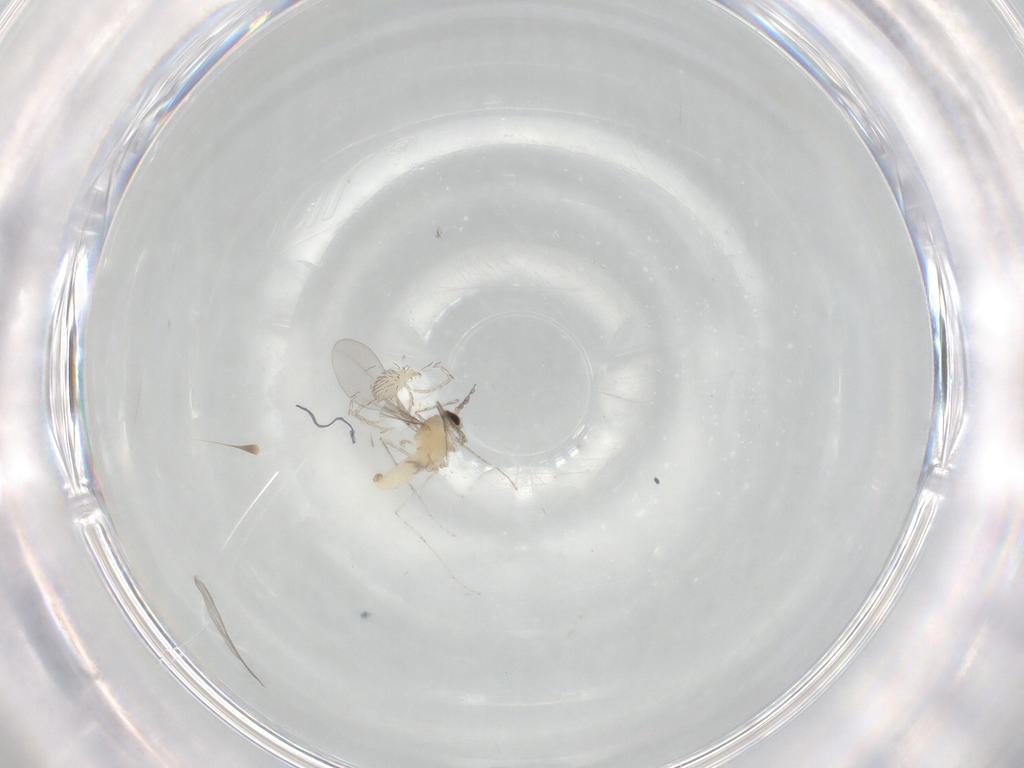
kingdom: Animalia
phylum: Arthropoda
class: Insecta
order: Diptera
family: Cecidomyiidae
